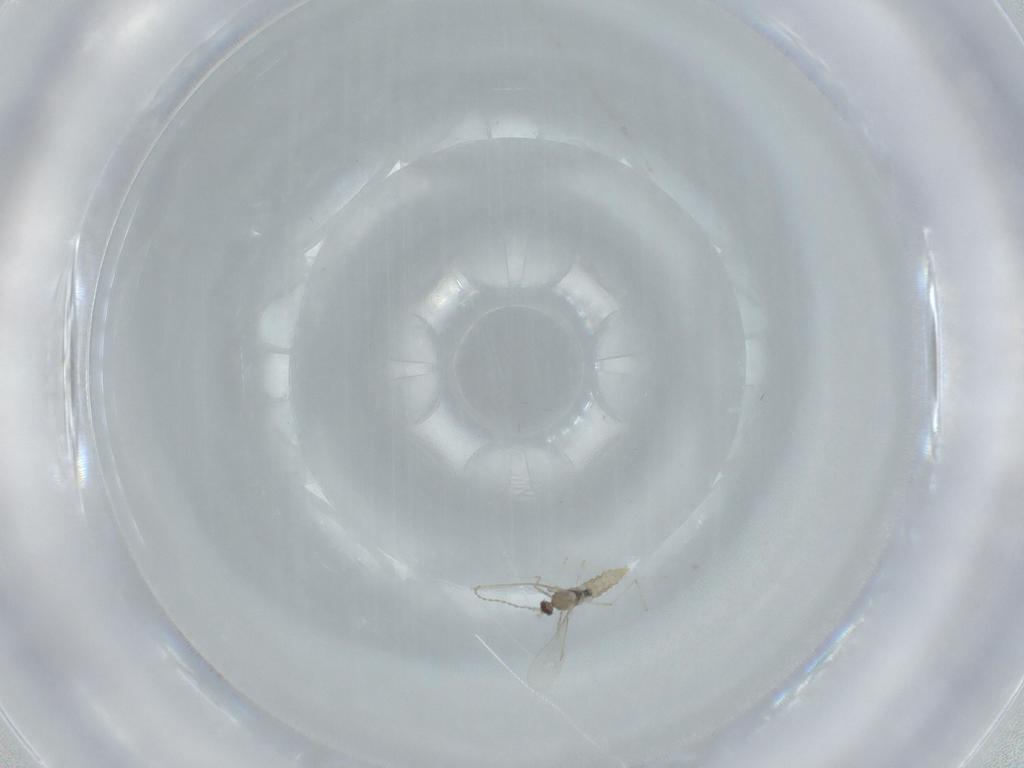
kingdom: Animalia
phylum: Arthropoda
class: Insecta
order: Diptera
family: Cecidomyiidae
